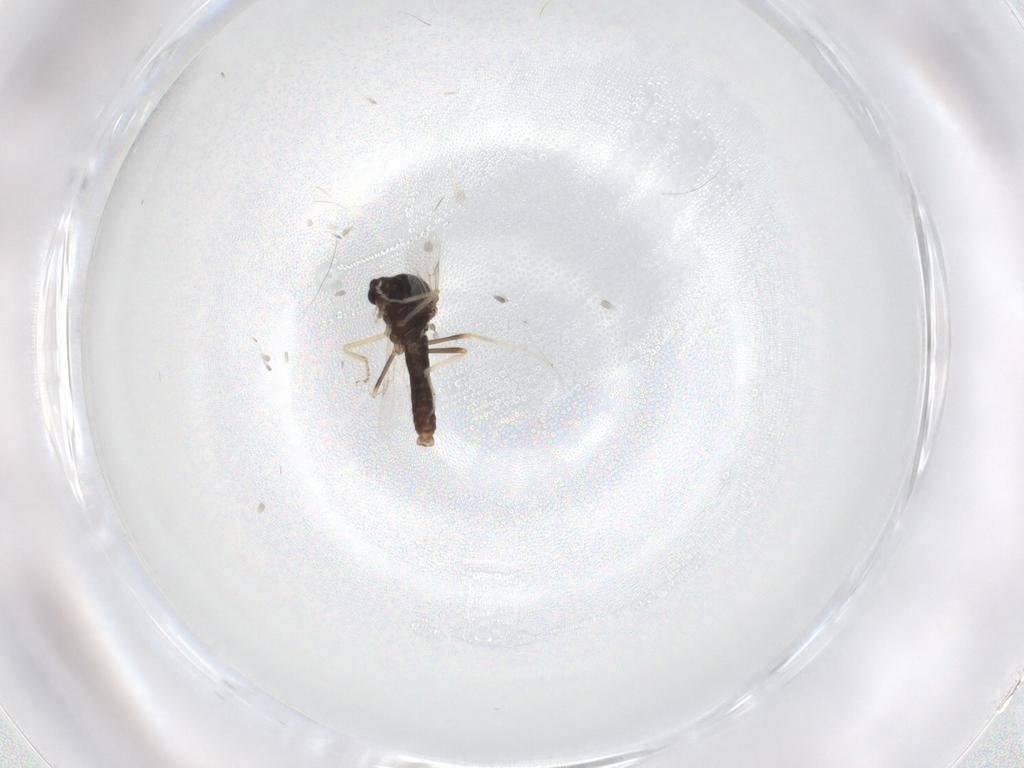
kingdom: Animalia
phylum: Arthropoda
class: Insecta
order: Diptera
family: Ceratopogonidae
